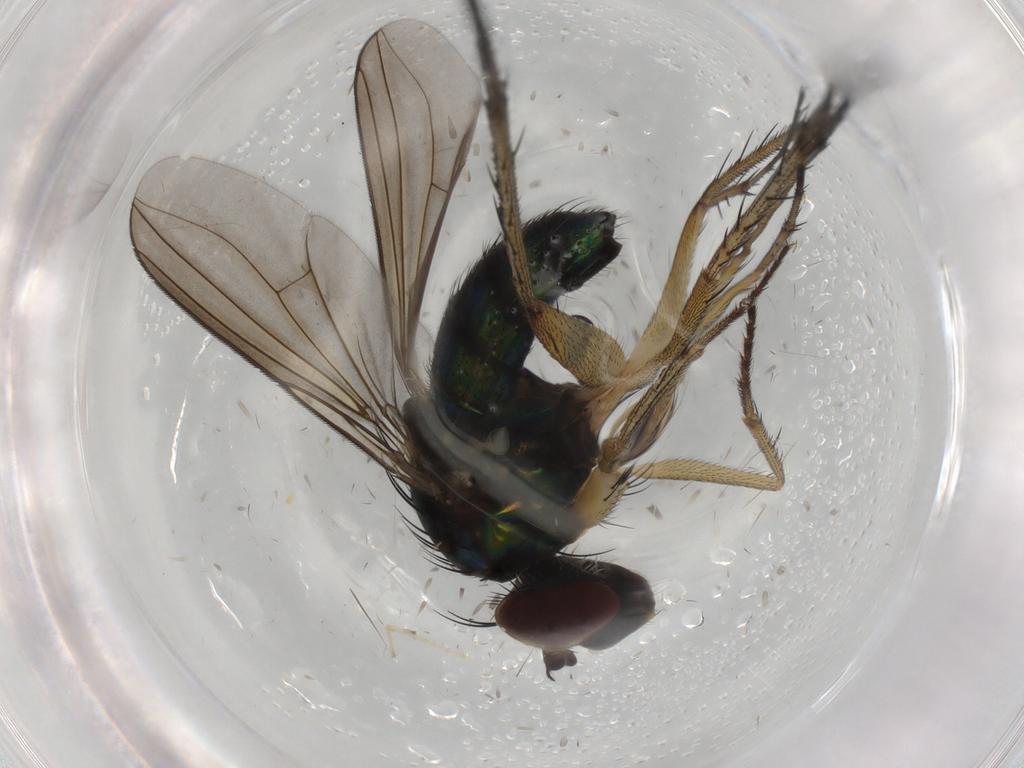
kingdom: Animalia
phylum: Arthropoda
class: Insecta
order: Diptera
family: Dolichopodidae
